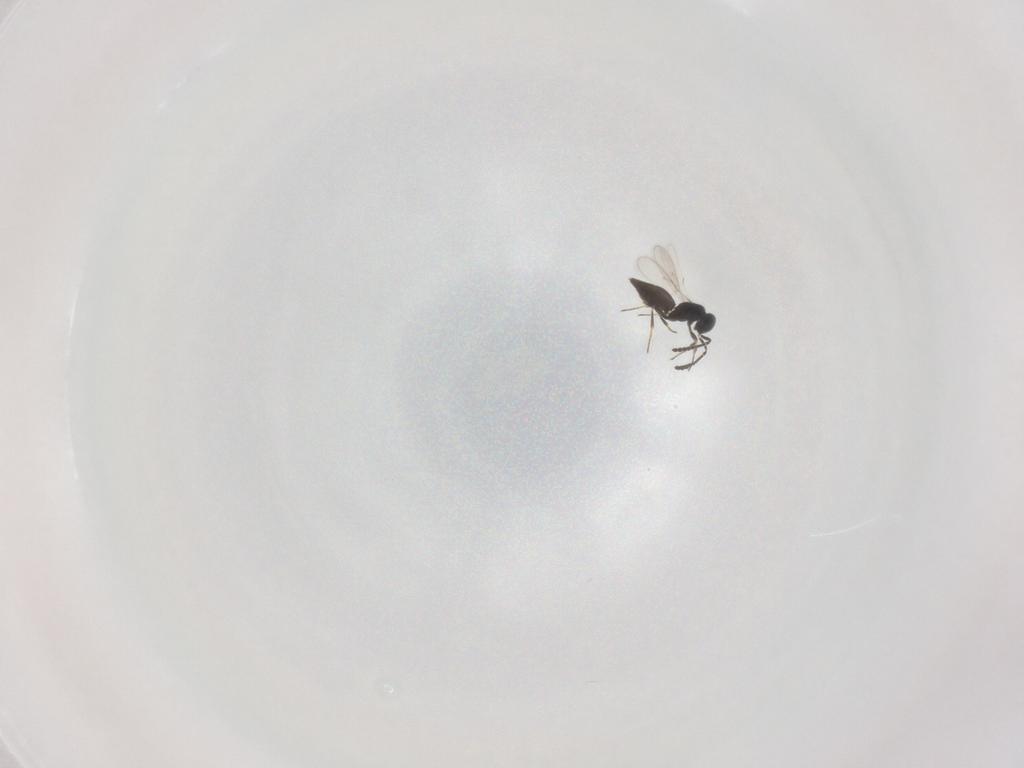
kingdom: Animalia
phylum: Arthropoda
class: Insecta
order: Hymenoptera
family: Scelionidae
